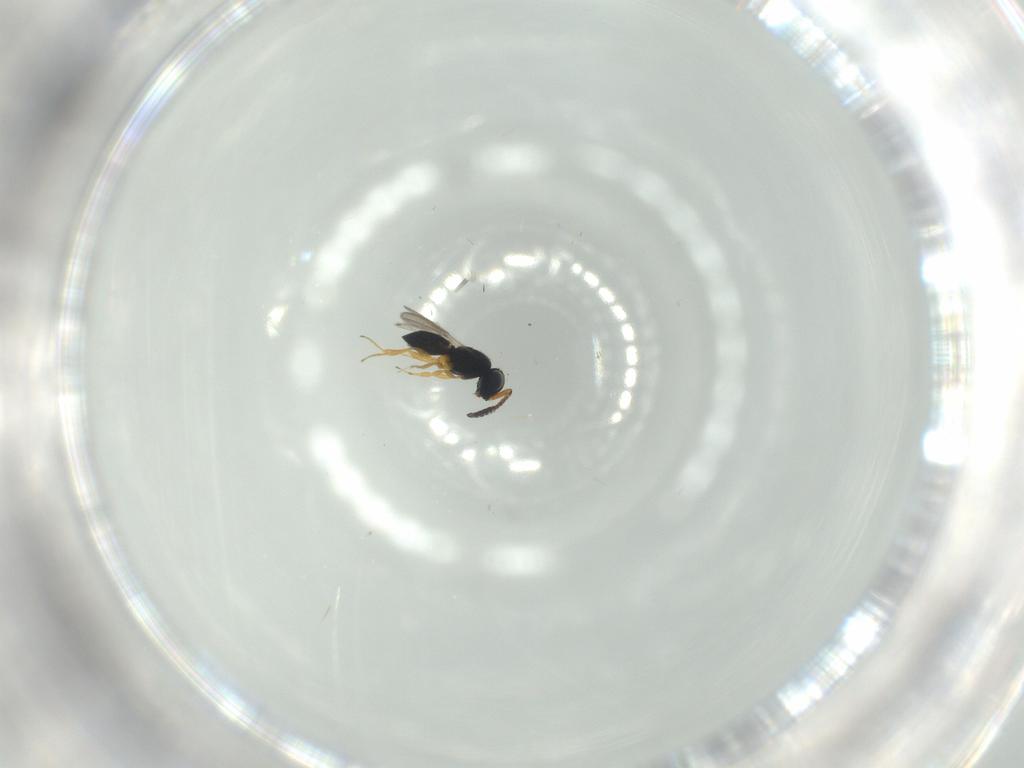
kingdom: Animalia
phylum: Arthropoda
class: Insecta
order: Hymenoptera
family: Scelionidae
